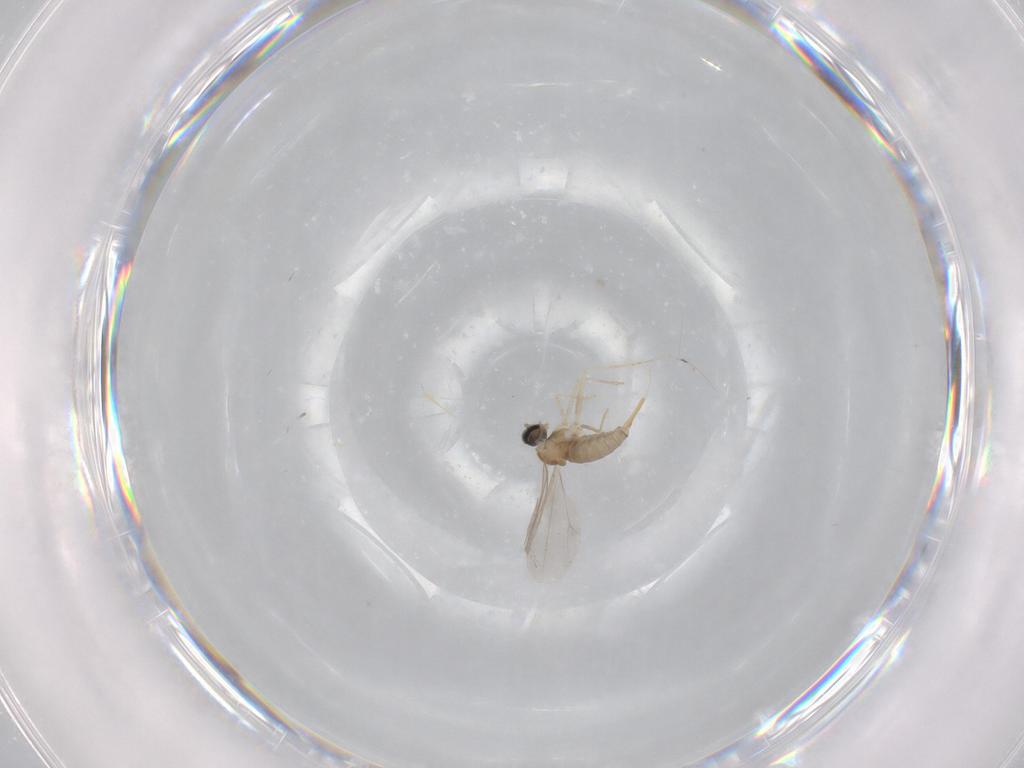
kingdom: Animalia
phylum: Arthropoda
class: Insecta
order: Diptera
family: Cecidomyiidae
